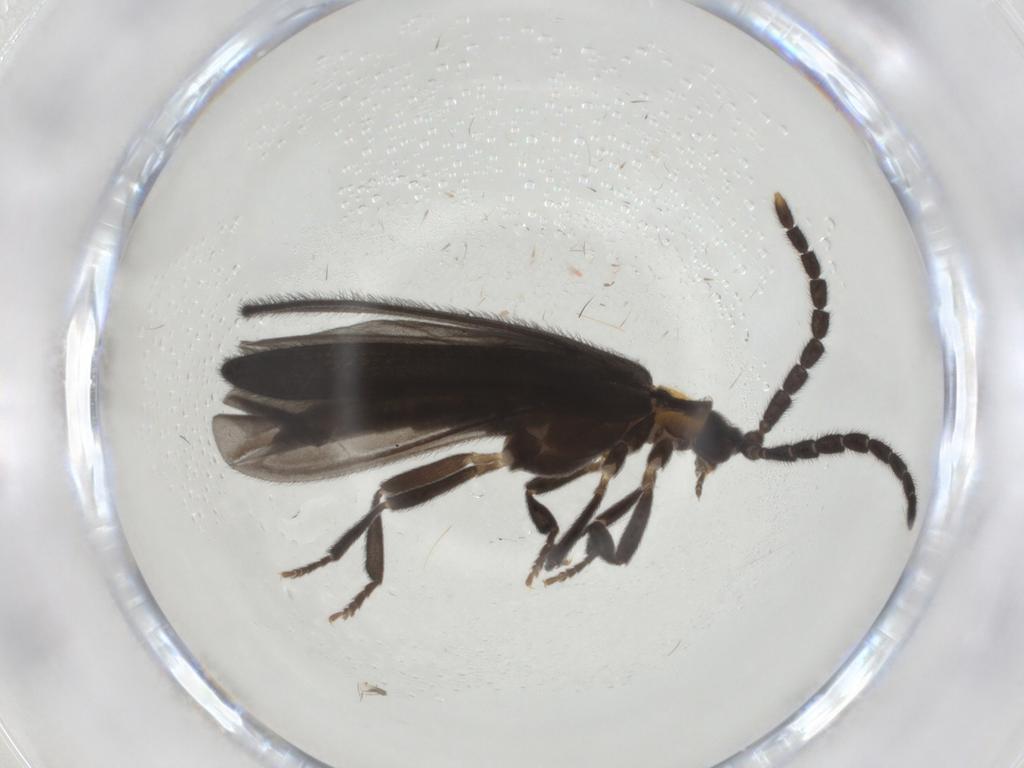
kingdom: Animalia
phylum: Arthropoda
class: Insecta
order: Coleoptera
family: Lycidae
